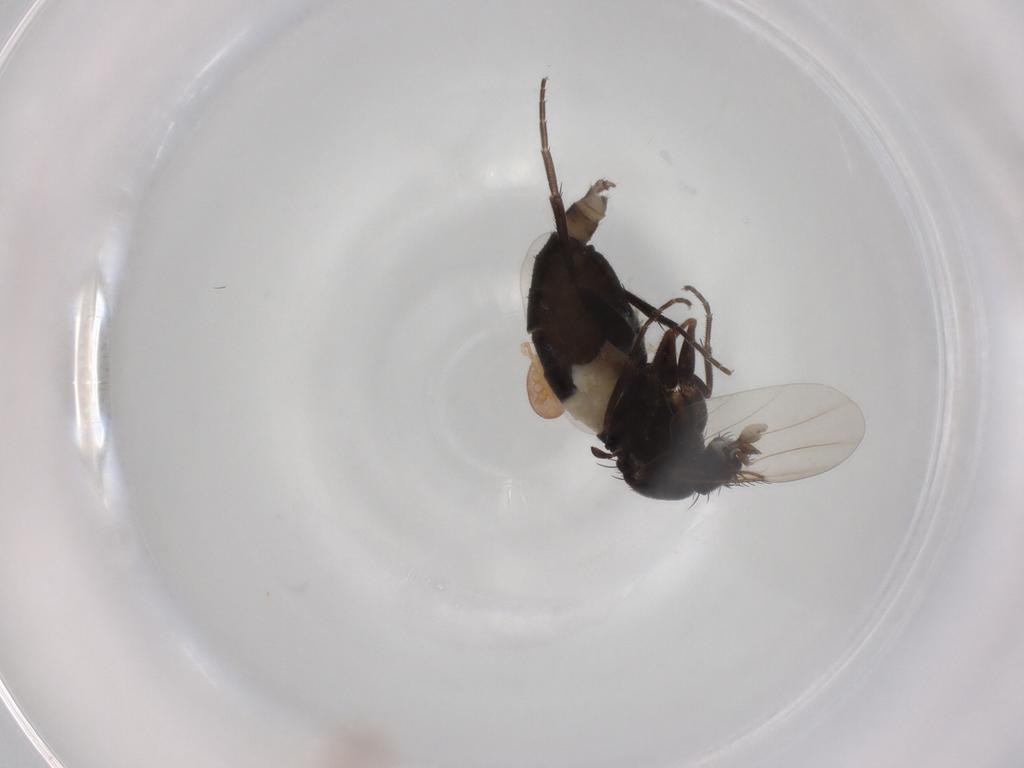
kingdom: Animalia
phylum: Arthropoda
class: Insecta
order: Diptera
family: Phoridae
